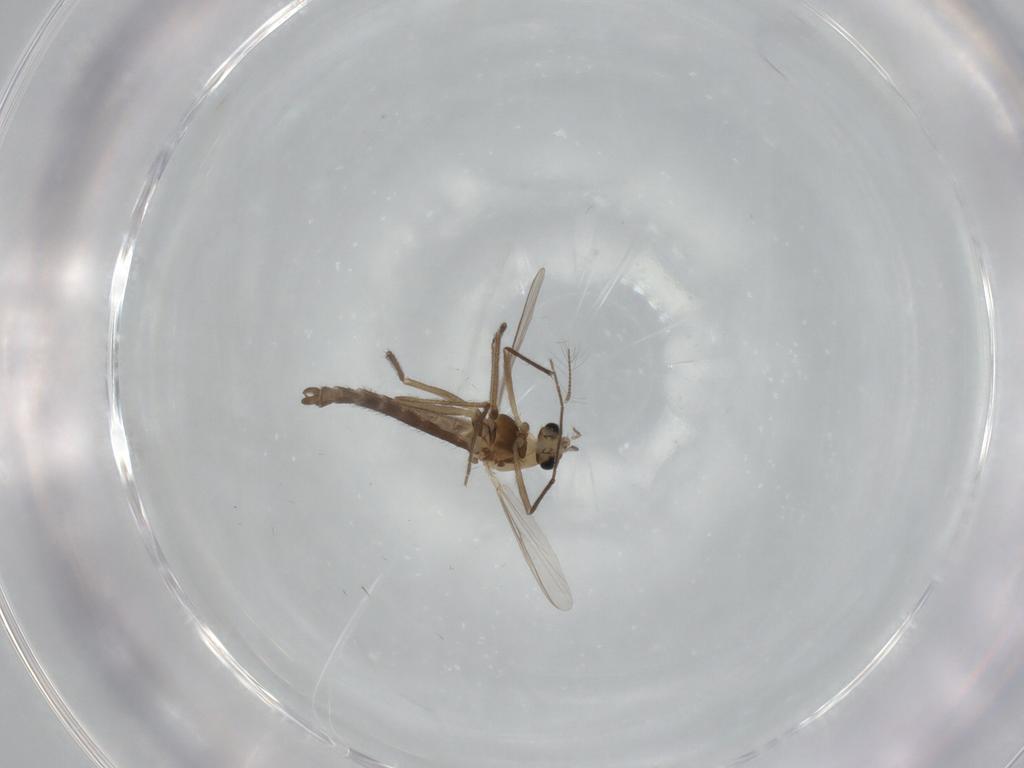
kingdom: Animalia
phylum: Arthropoda
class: Insecta
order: Diptera
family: Chironomidae
